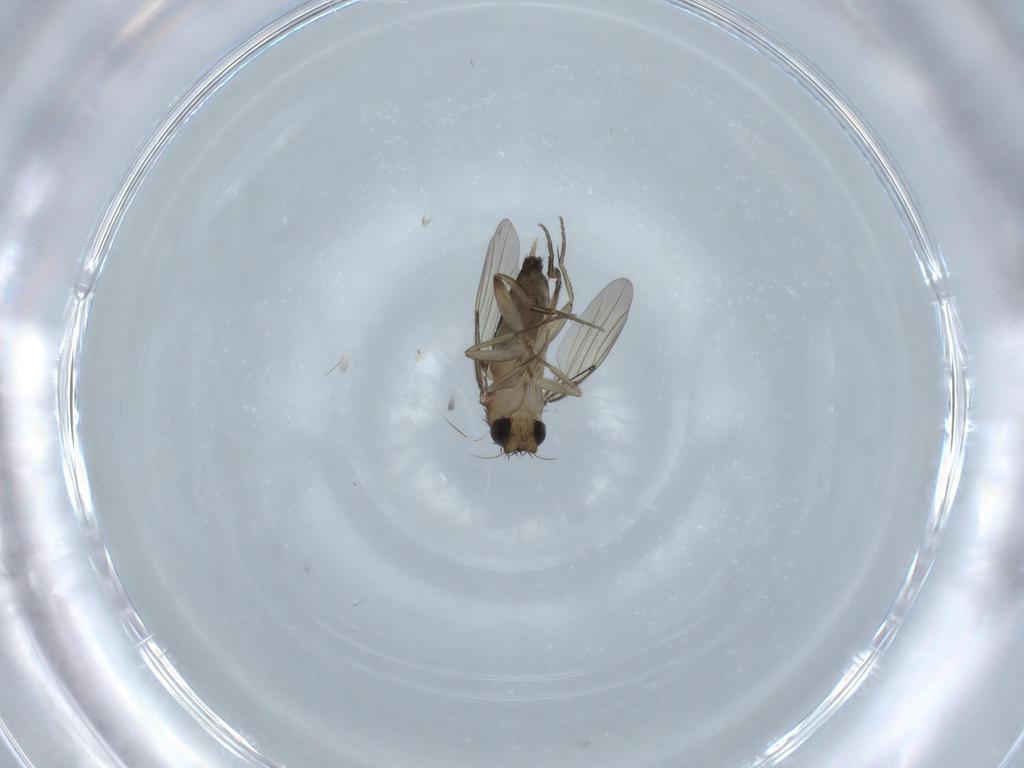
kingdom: Animalia
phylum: Arthropoda
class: Insecta
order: Diptera
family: Phoridae
